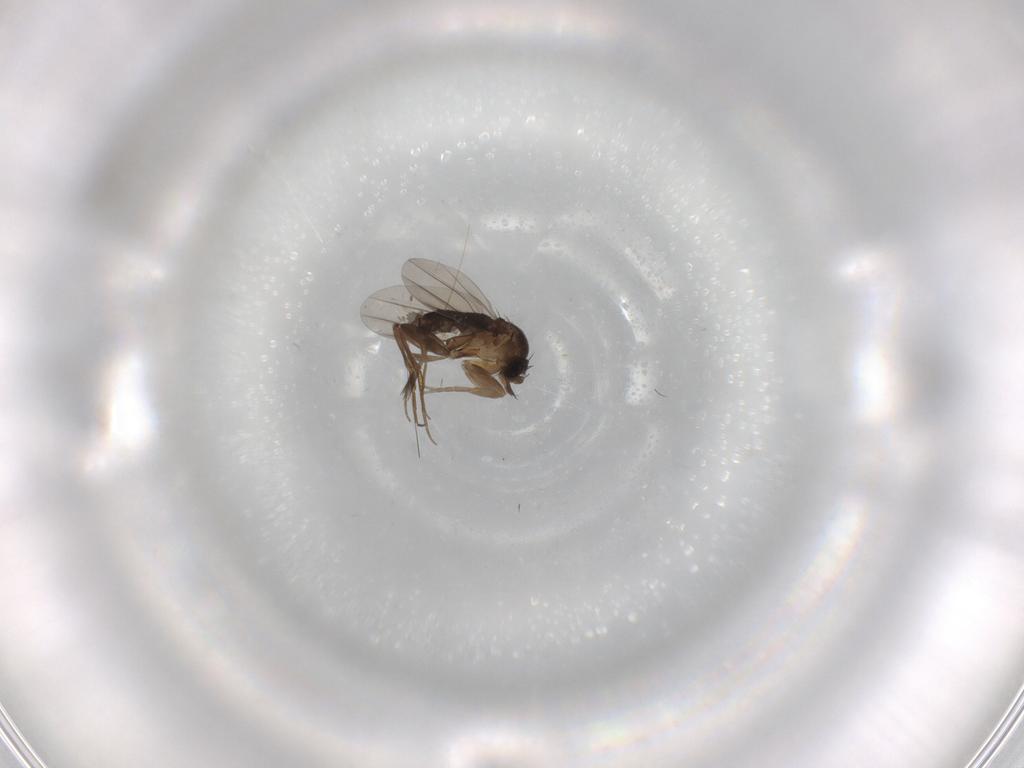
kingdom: Animalia
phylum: Arthropoda
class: Insecta
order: Diptera
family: Phoridae
